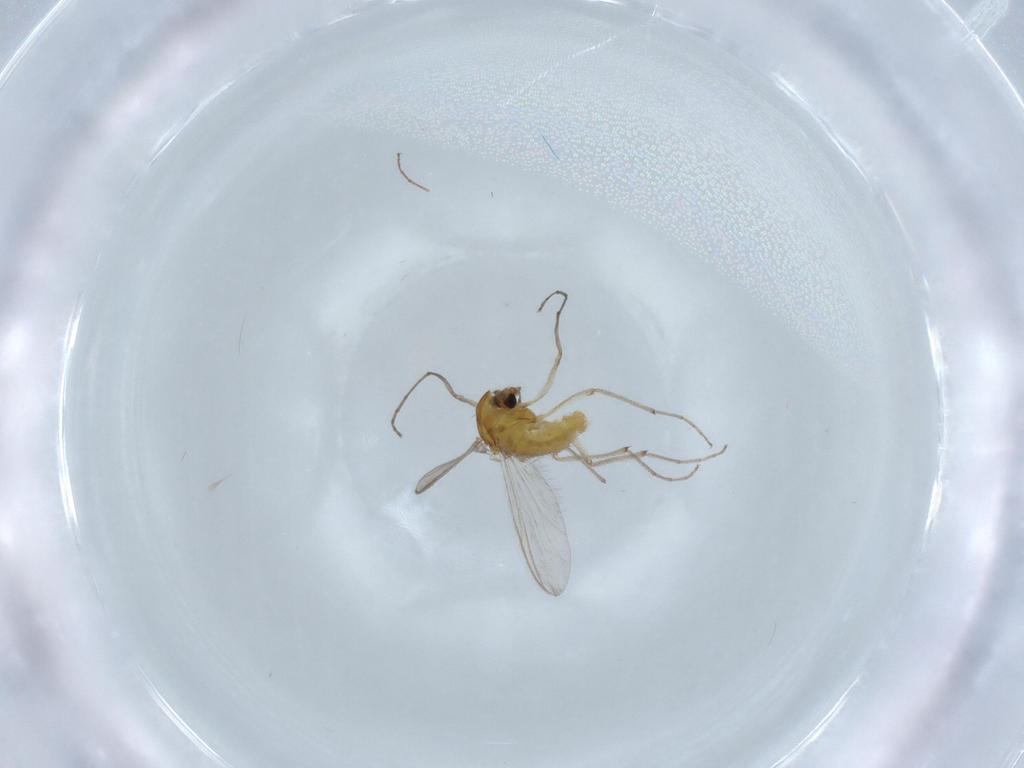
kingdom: Animalia
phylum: Arthropoda
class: Insecta
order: Diptera
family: Chironomidae
